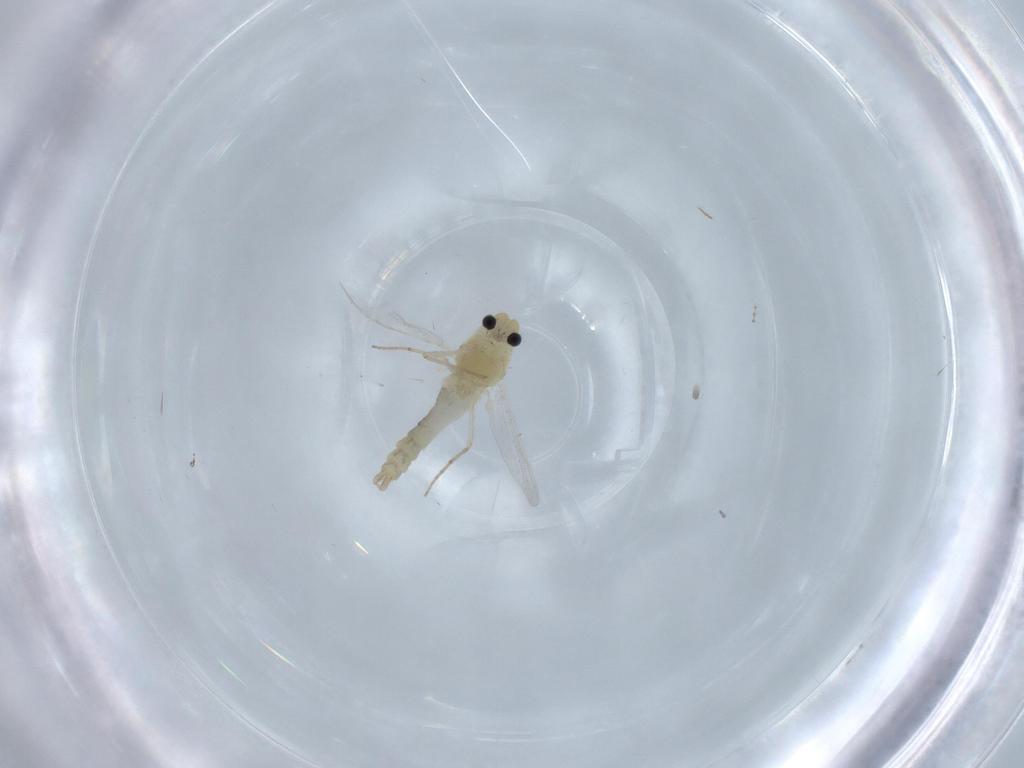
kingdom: Animalia
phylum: Arthropoda
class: Insecta
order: Diptera
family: Chironomidae
